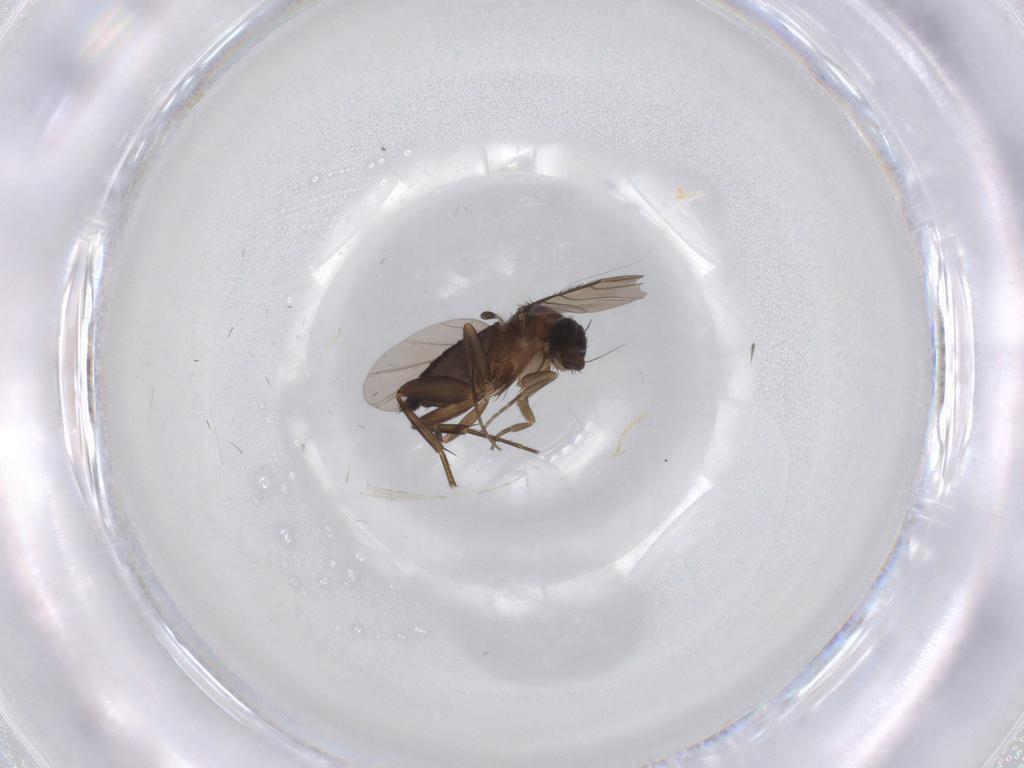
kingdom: Animalia
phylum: Arthropoda
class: Insecta
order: Diptera
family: Phoridae
